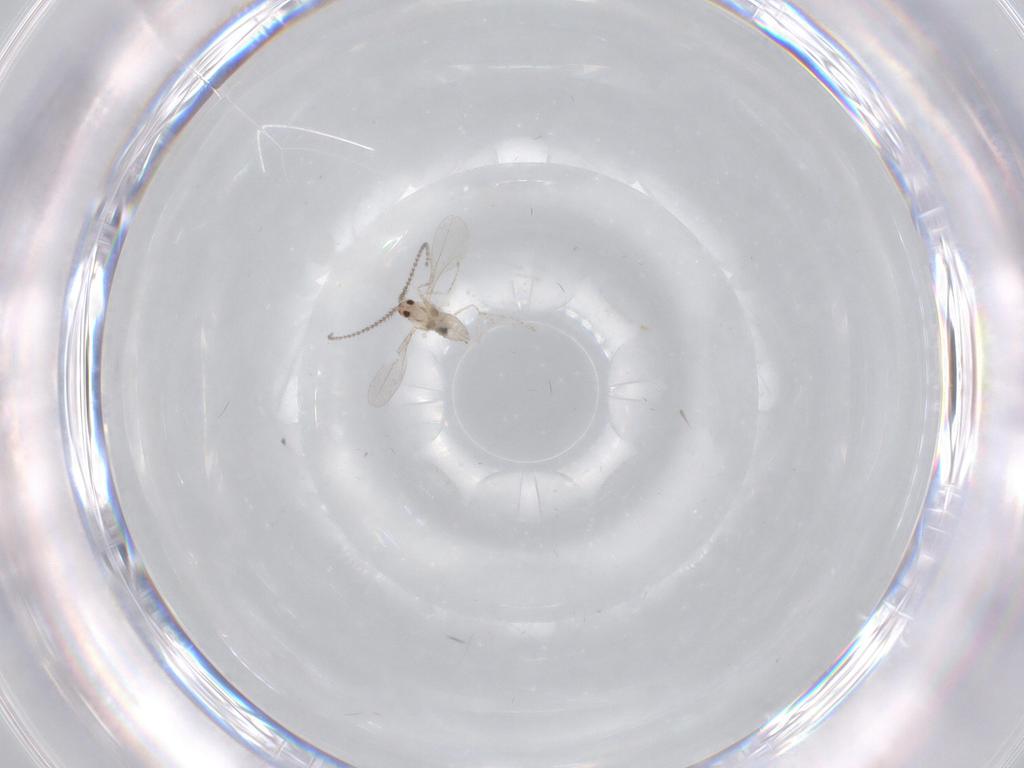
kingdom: Animalia
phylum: Arthropoda
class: Insecta
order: Diptera
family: Cecidomyiidae
